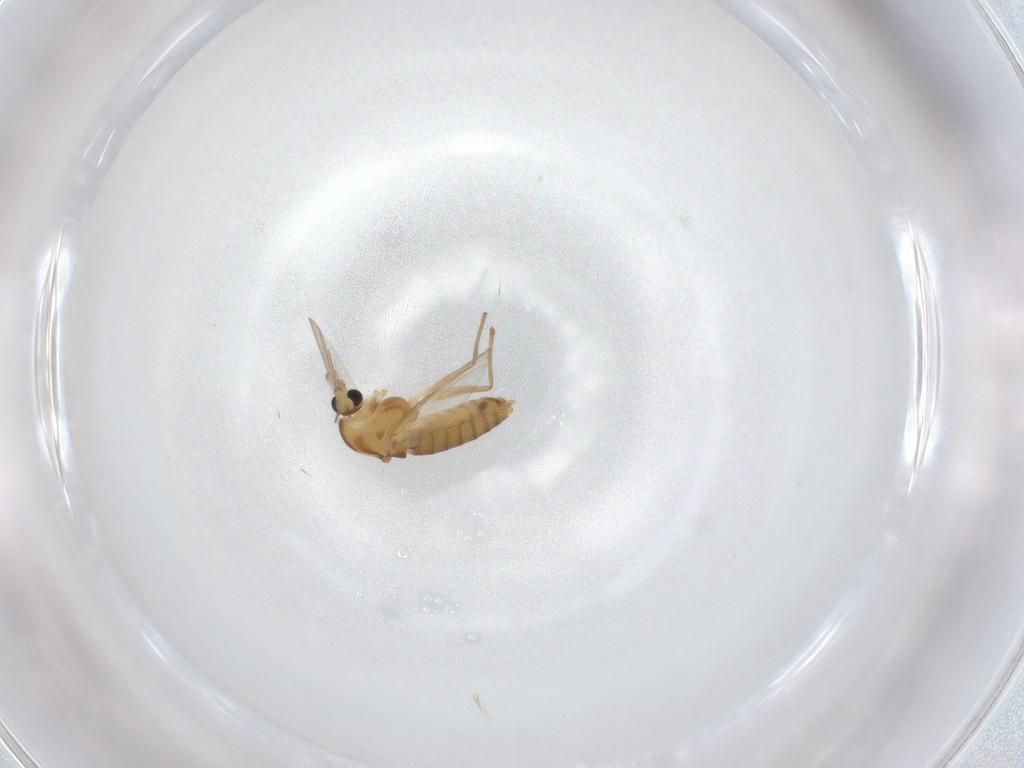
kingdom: Animalia
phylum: Arthropoda
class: Insecta
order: Diptera
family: Chironomidae
